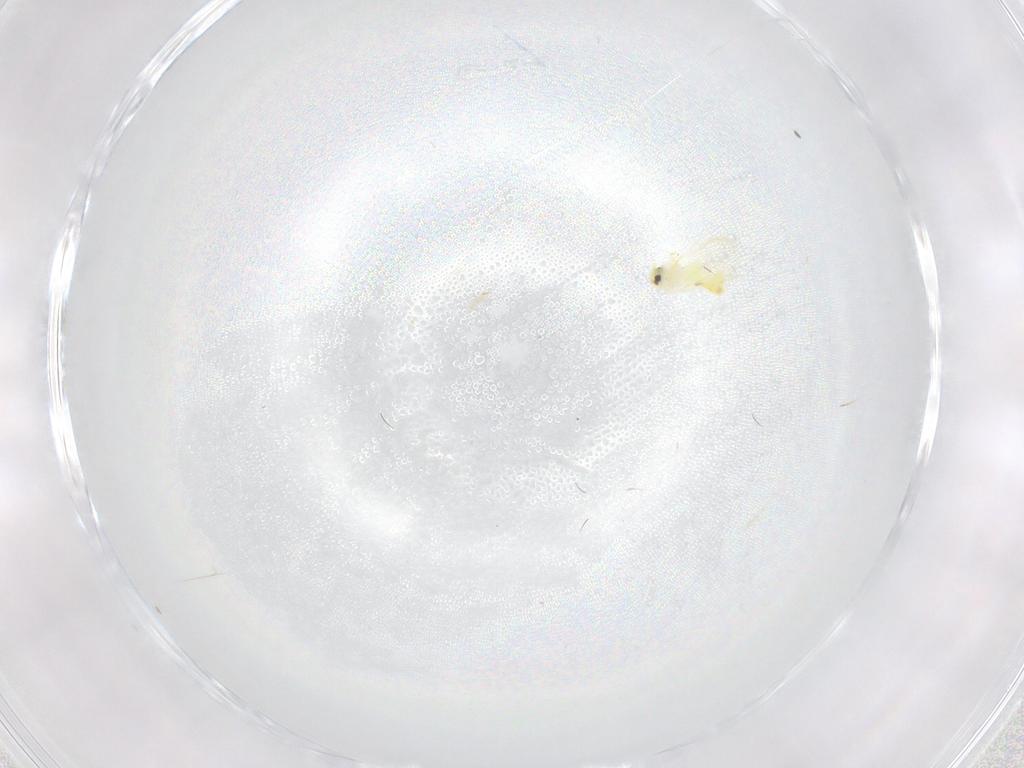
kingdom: Animalia
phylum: Arthropoda
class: Insecta
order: Hemiptera
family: Aleyrodidae
